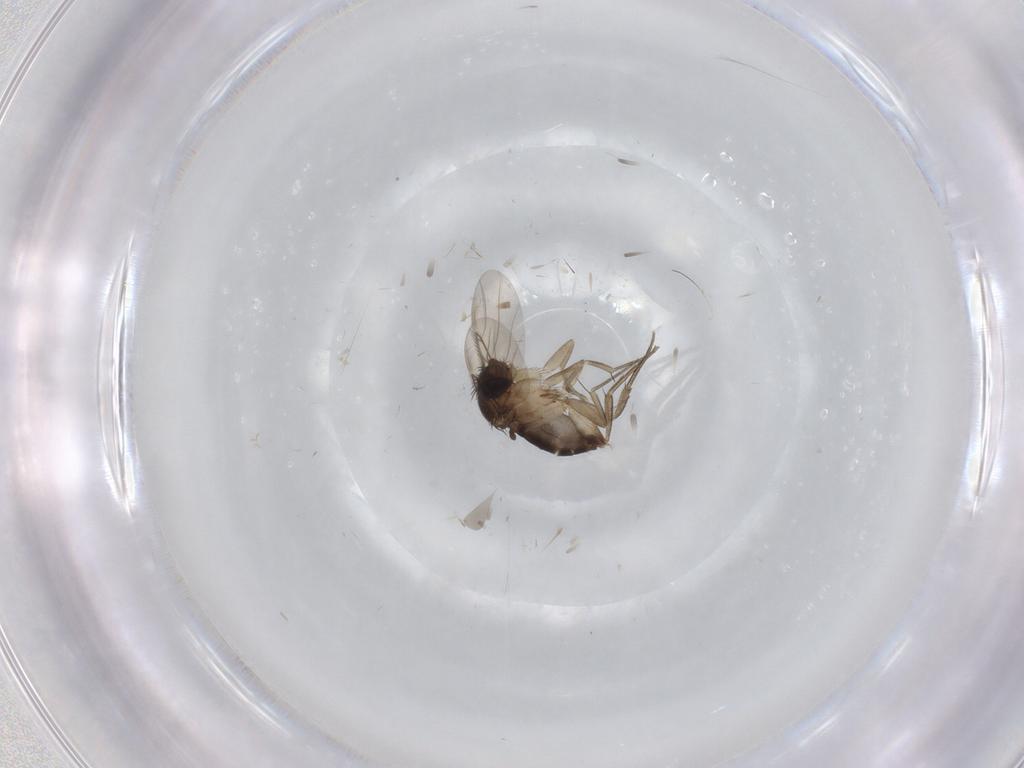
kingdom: Animalia
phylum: Arthropoda
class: Insecta
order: Diptera
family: Phoridae
